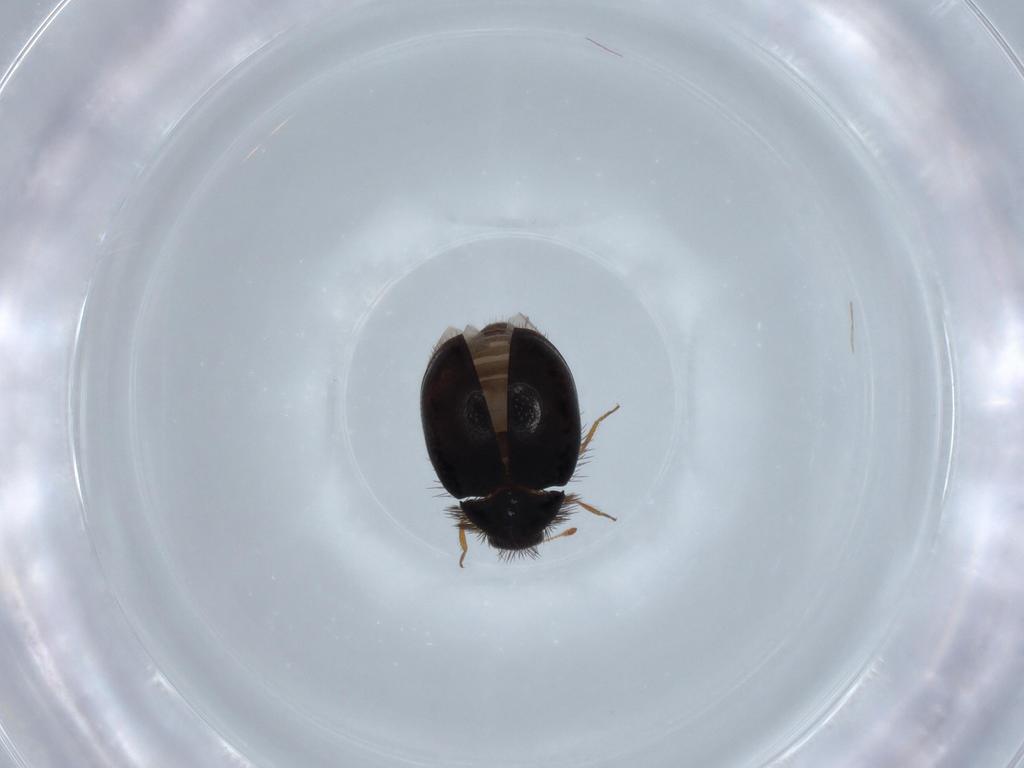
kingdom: Animalia
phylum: Arthropoda
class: Insecta
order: Coleoptera
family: Dermestidae
